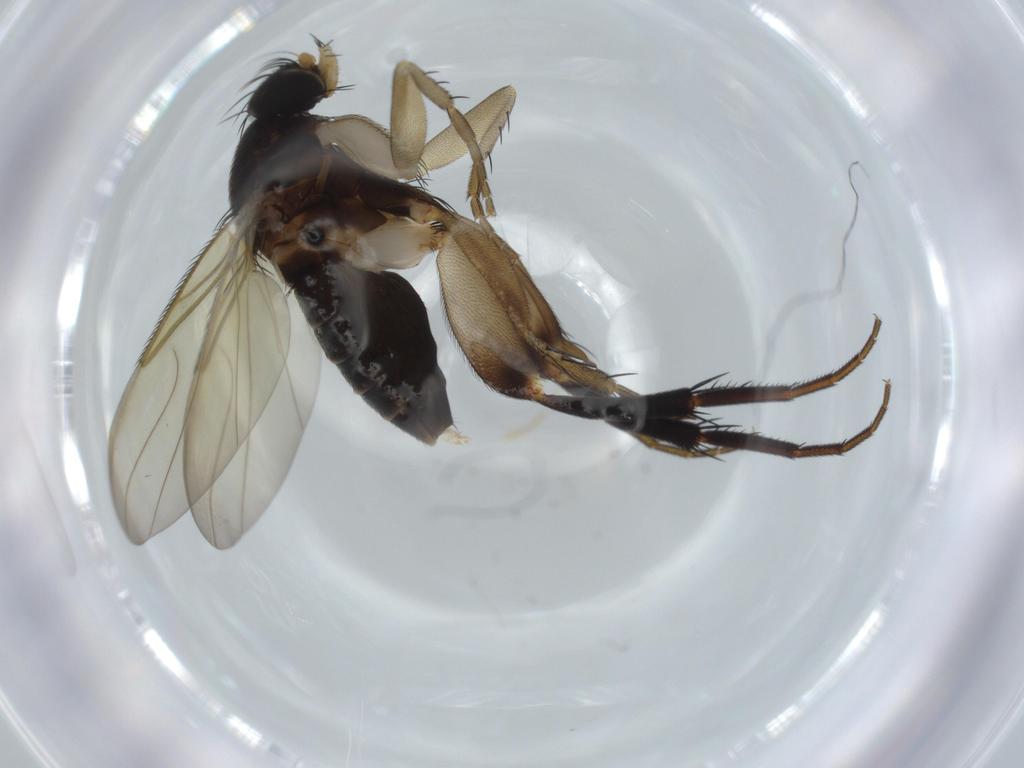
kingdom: Animalia
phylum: Arthropoda
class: Insecta
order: Diptera
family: Phoridae
